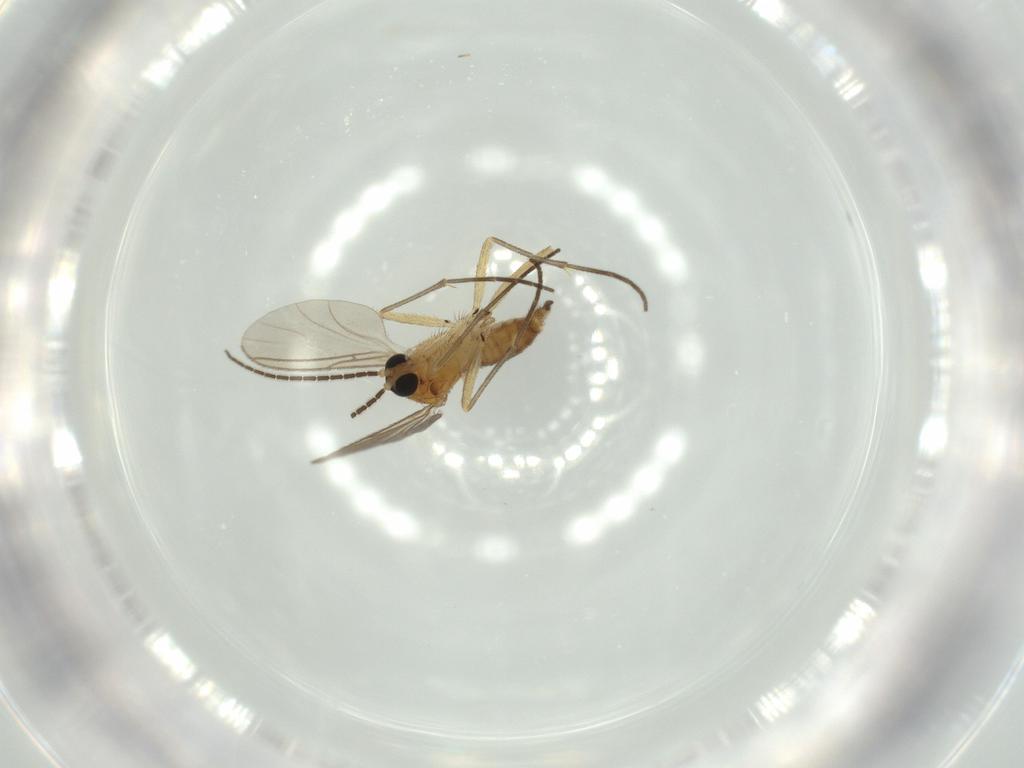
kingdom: Animalia
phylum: Arthropoda
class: Insecta
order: Diptera
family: Sciaridae
